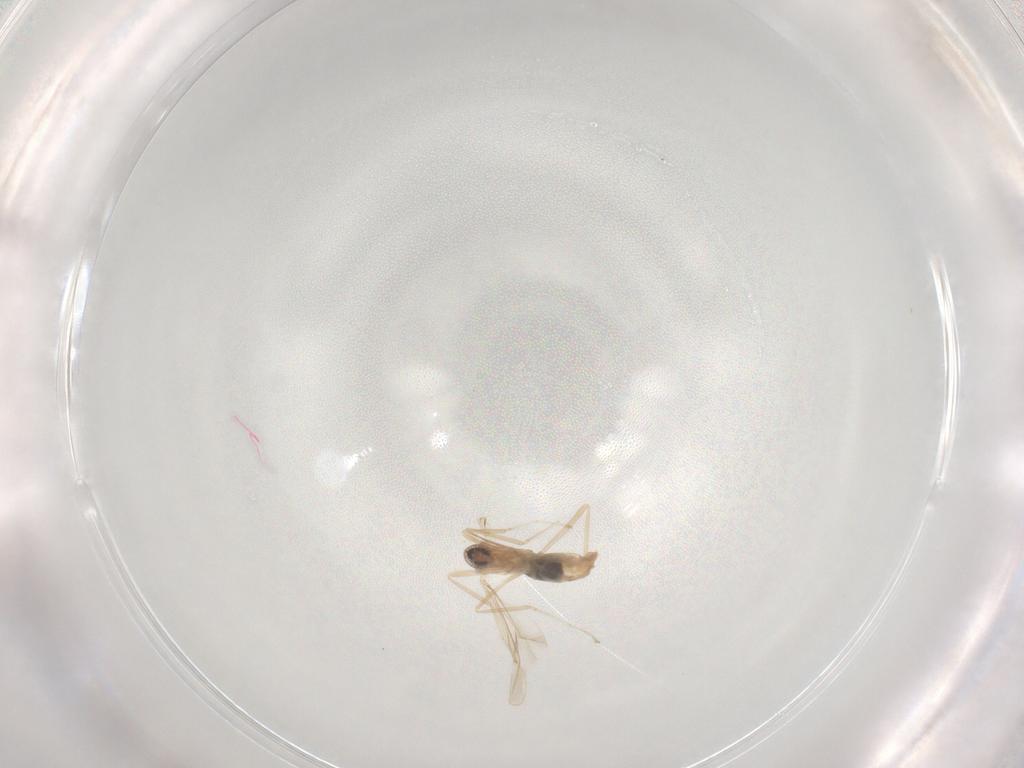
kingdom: Animalia
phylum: Arthropoda
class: Insecta
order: Diptera
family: Cecidomyiidae
